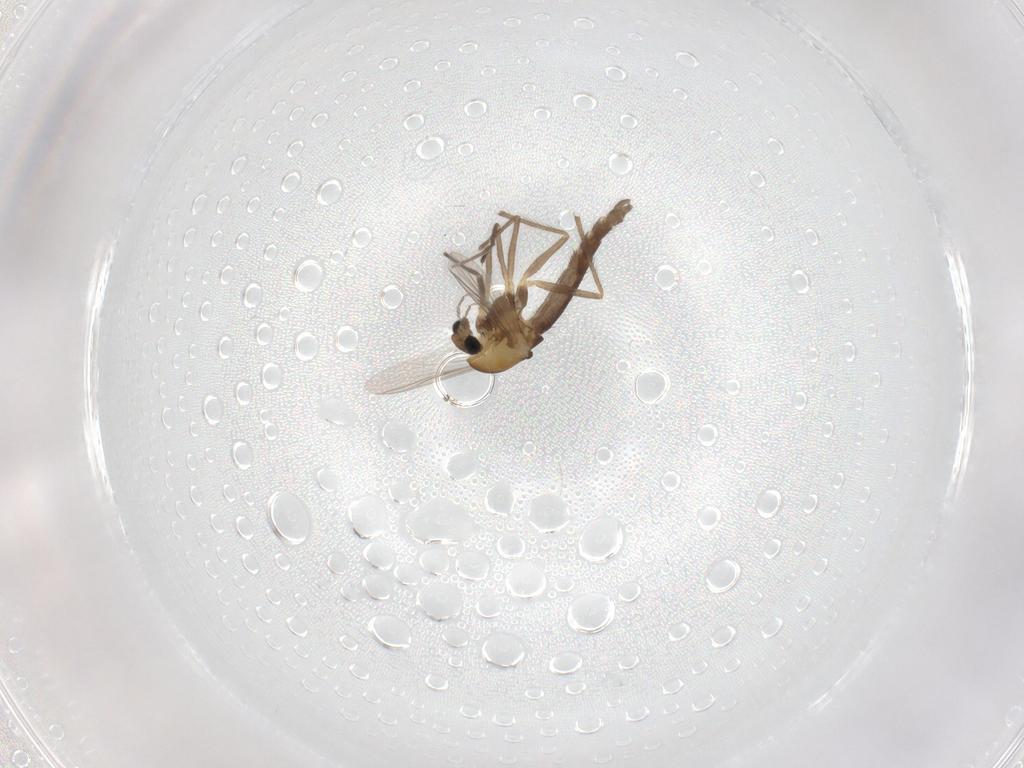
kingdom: Animalia
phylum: Arthropoda
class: Insecta
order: Diptera
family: Chironomidae
